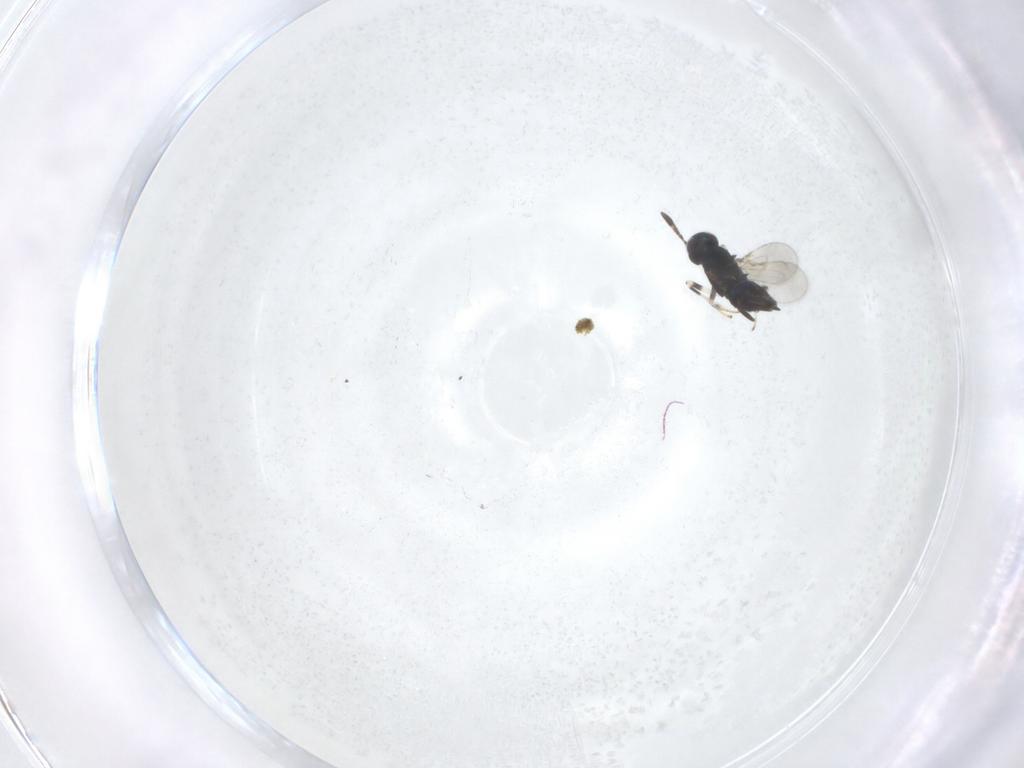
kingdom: Animalia
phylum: Arthropoda
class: Insecta
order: Hymenoptera
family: Encyrtidae
